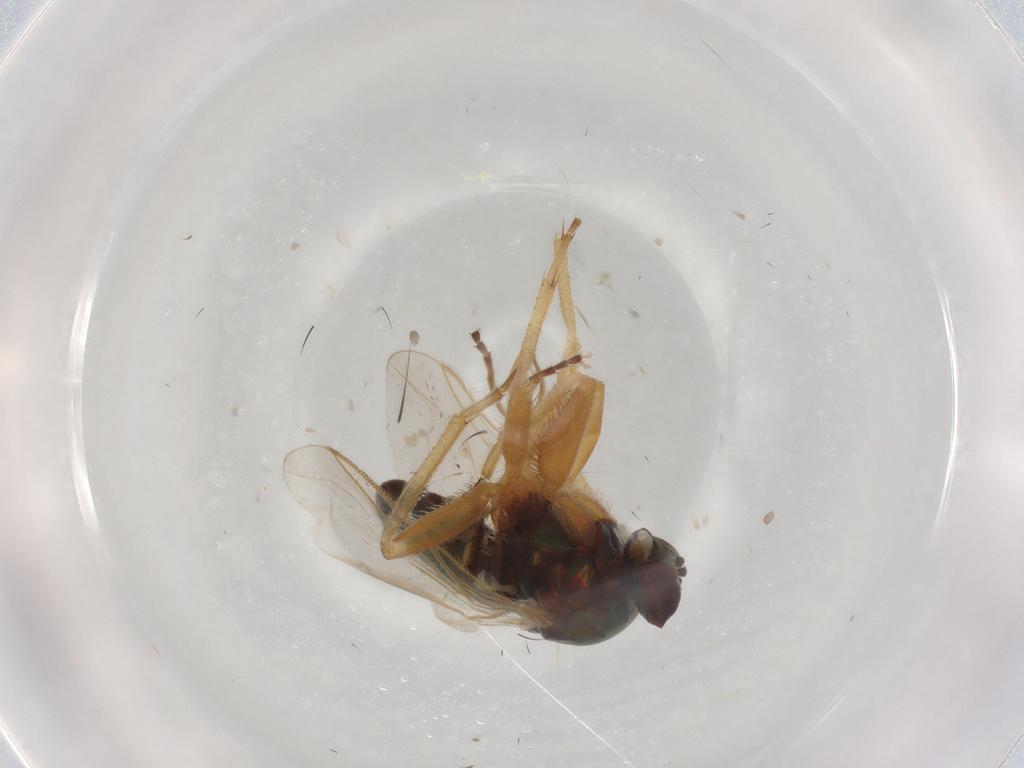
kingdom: Animalia
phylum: Arthropoda
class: Insecta
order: Diptera
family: Dolichopodidae
